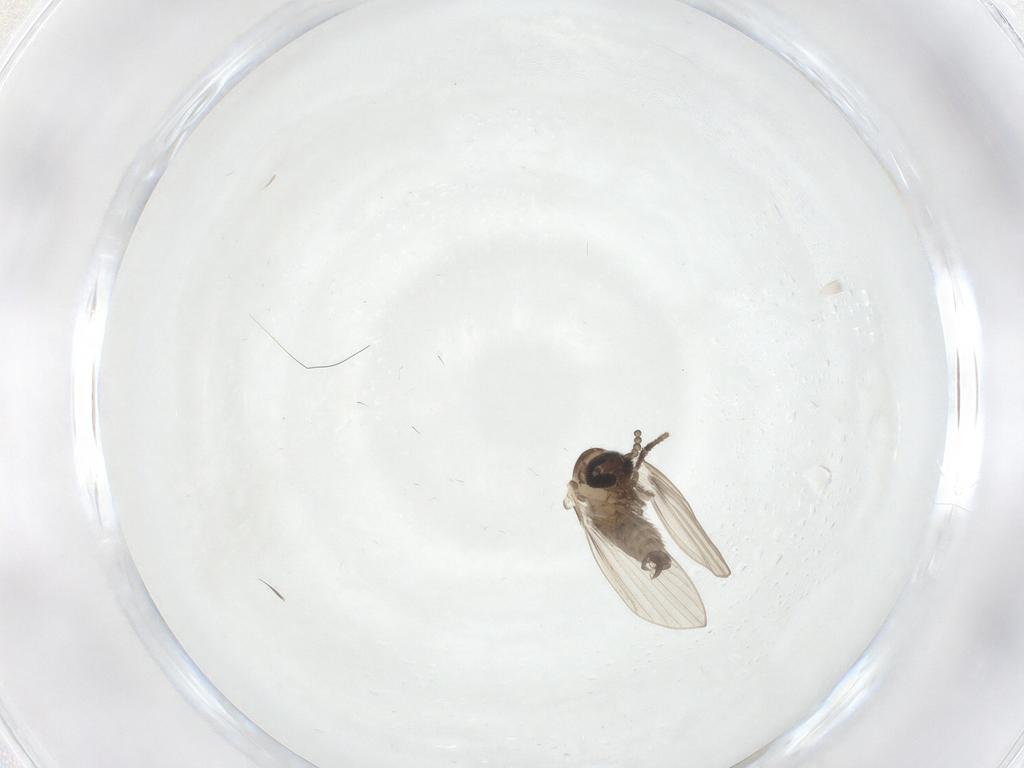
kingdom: Animalia
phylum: Arthropoda
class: Insecta
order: Diptera
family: Psychodidae
